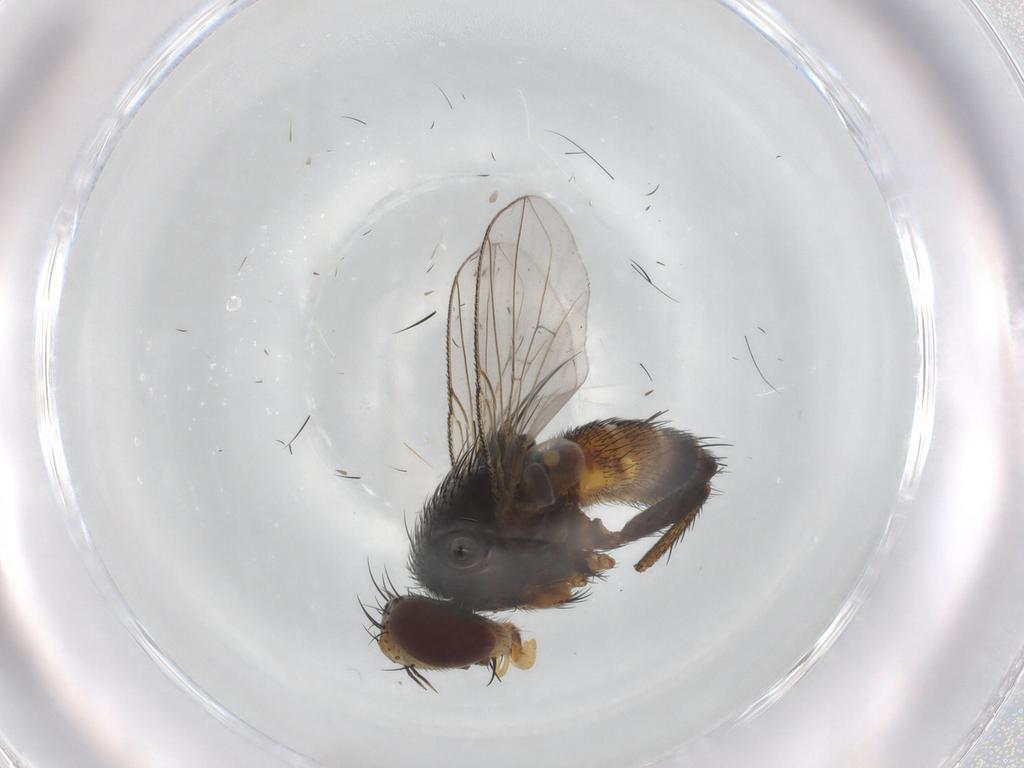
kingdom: Animalia
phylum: Arthropoda
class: Insecta
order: Diptera
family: Tachinidae
